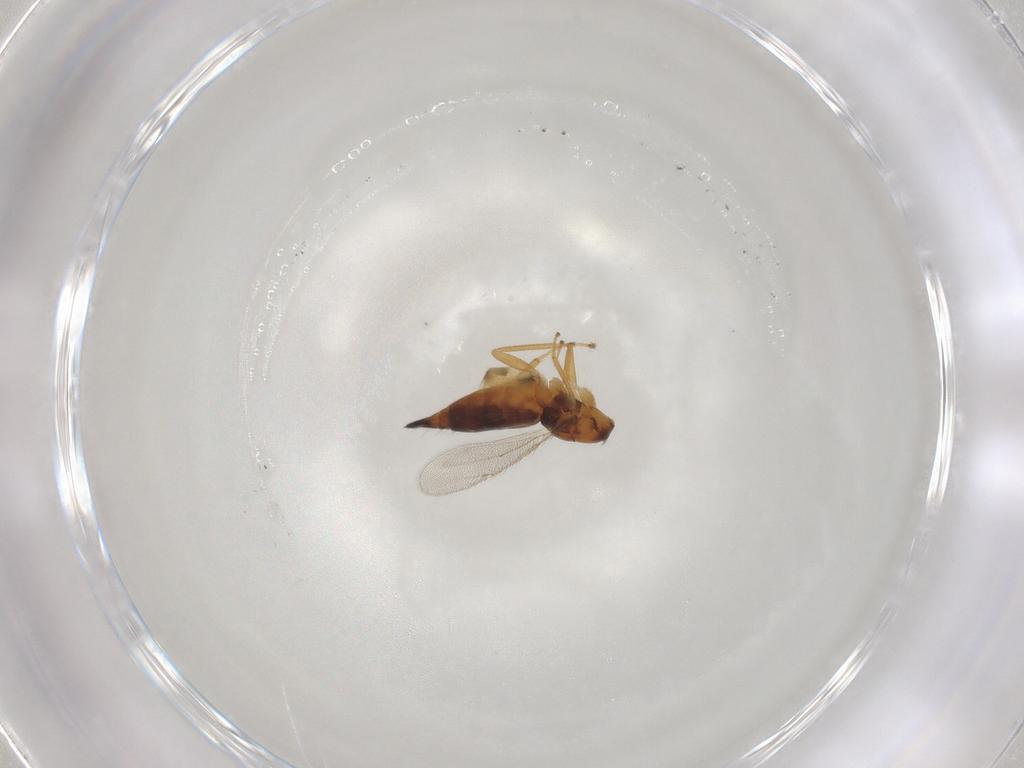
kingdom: Animalia
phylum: Arthropoda
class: Insecta
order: Hymenoptera
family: Eulophidae
